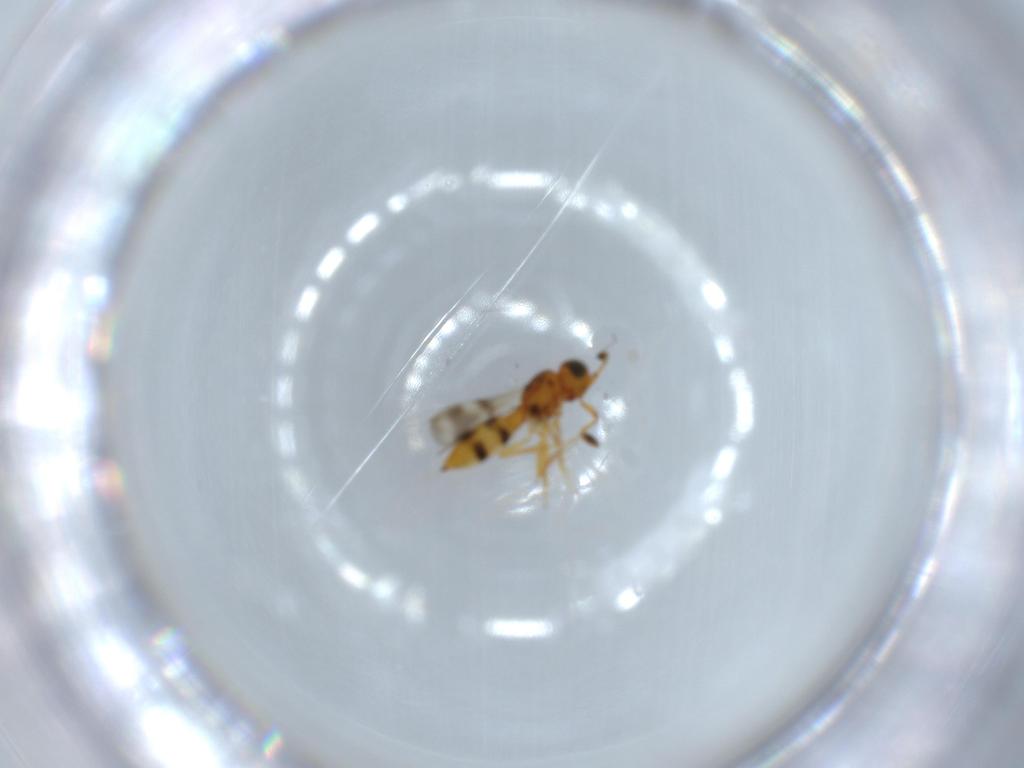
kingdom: Animalia
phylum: Arthropoda
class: Insecta
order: Hymenoptera
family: Scelionidae
